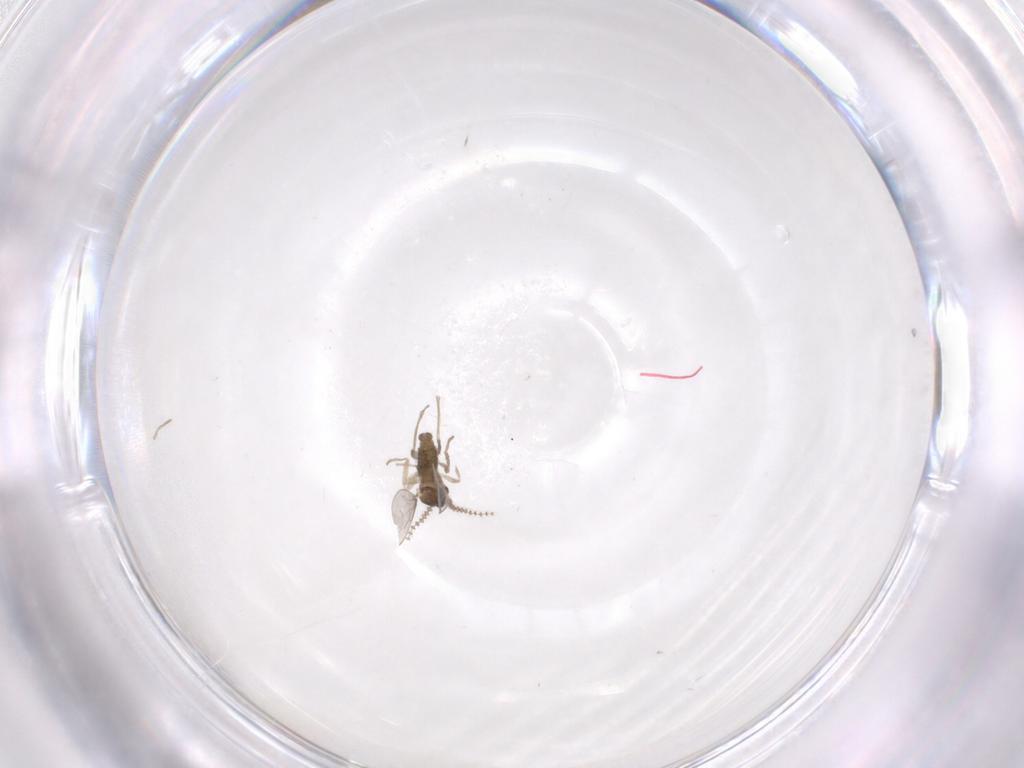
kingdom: Animalia
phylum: Arthropoda
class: Insecta
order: Diptera
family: Cecidomyiidae
